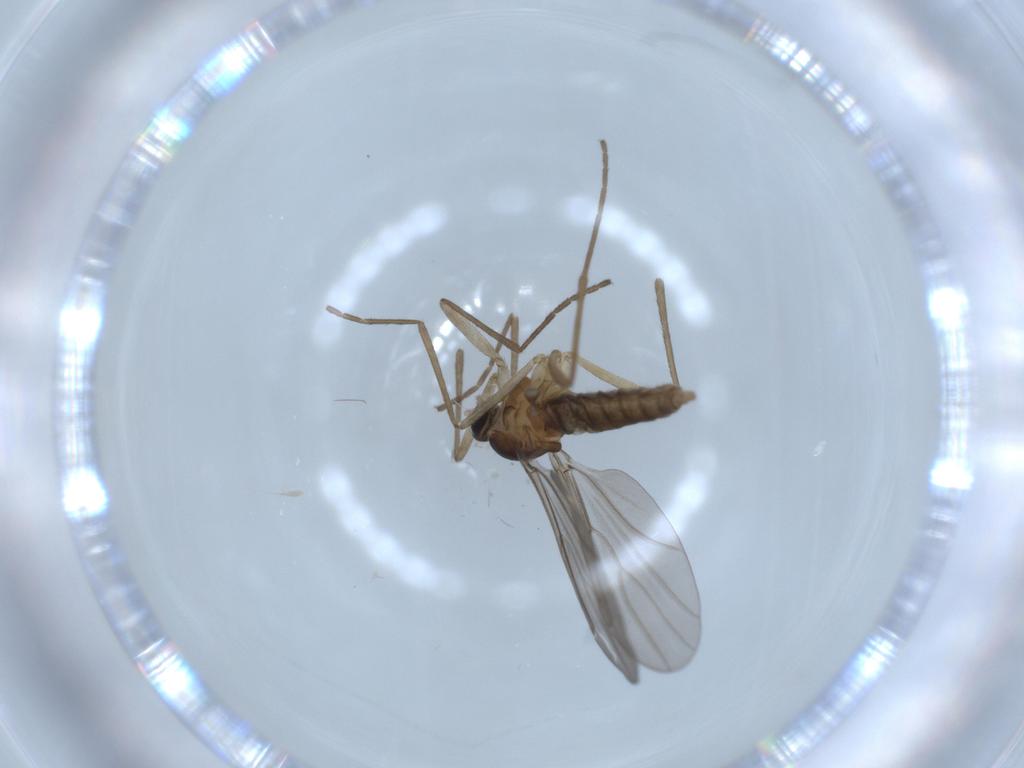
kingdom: Animalia
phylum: Arthropoda
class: Insecta
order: Diptera
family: Cecidomyiidae
